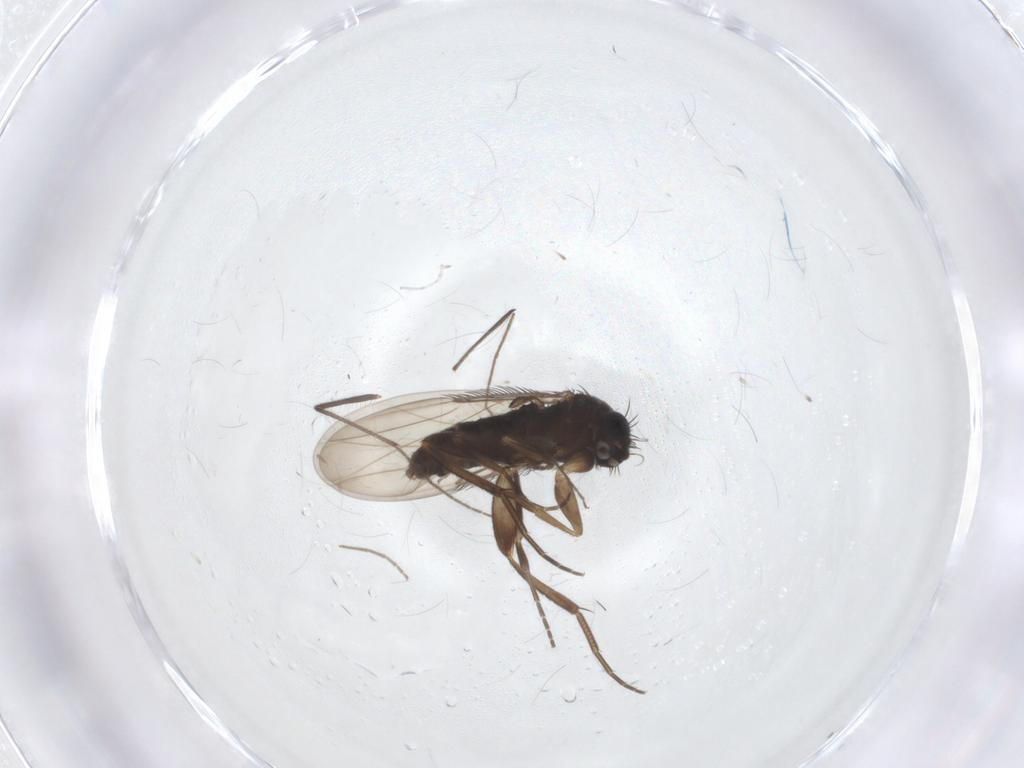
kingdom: Animalia
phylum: Arthropoda
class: Insecta
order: Diptera
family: Phoridae
